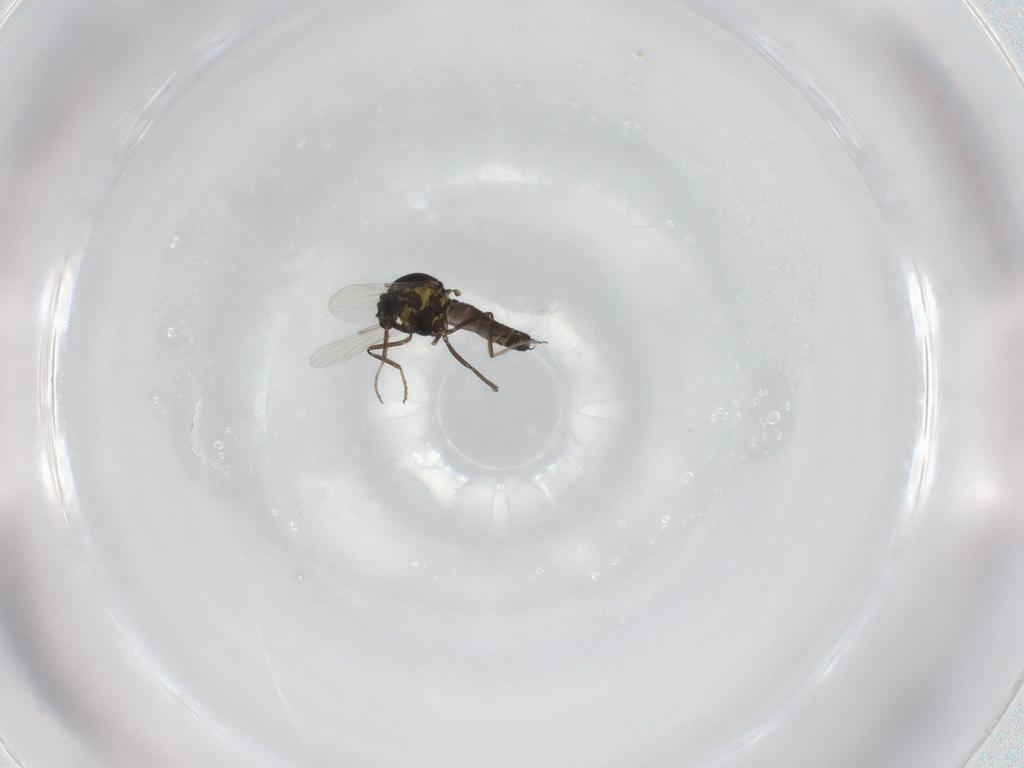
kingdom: Animalia
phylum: Arthropoda
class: Insecta
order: Diptera
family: Ceratopogonidae
